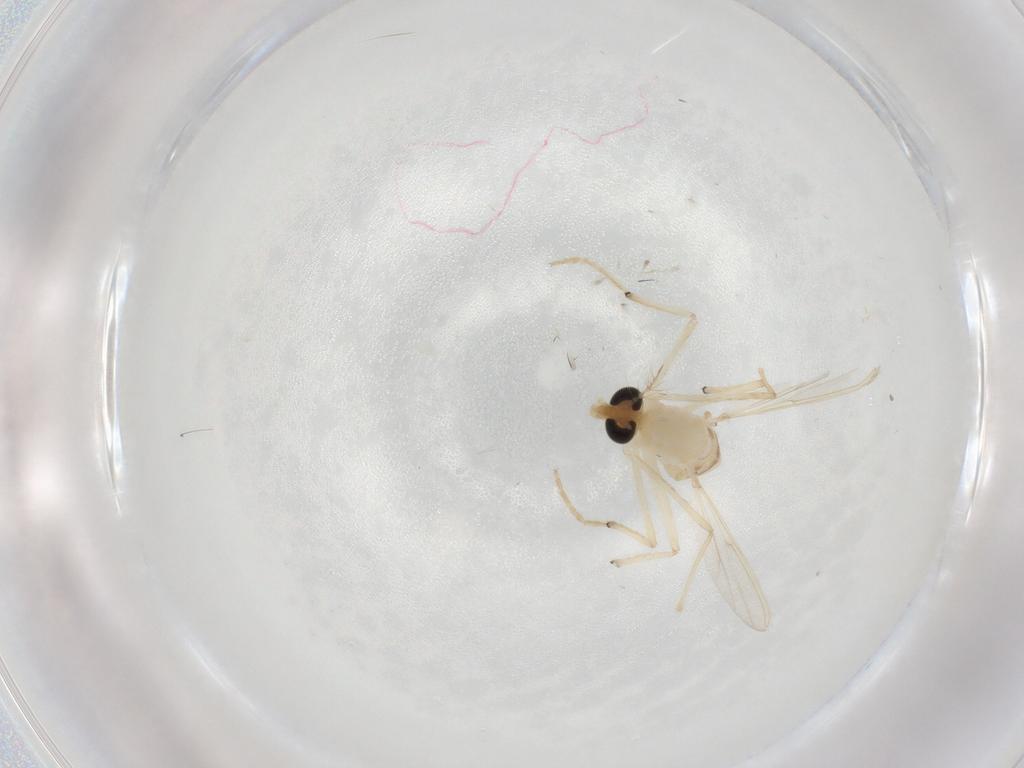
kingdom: Animalia
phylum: Arthropoda
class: Insecta
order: Diptera
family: Chironomidae
